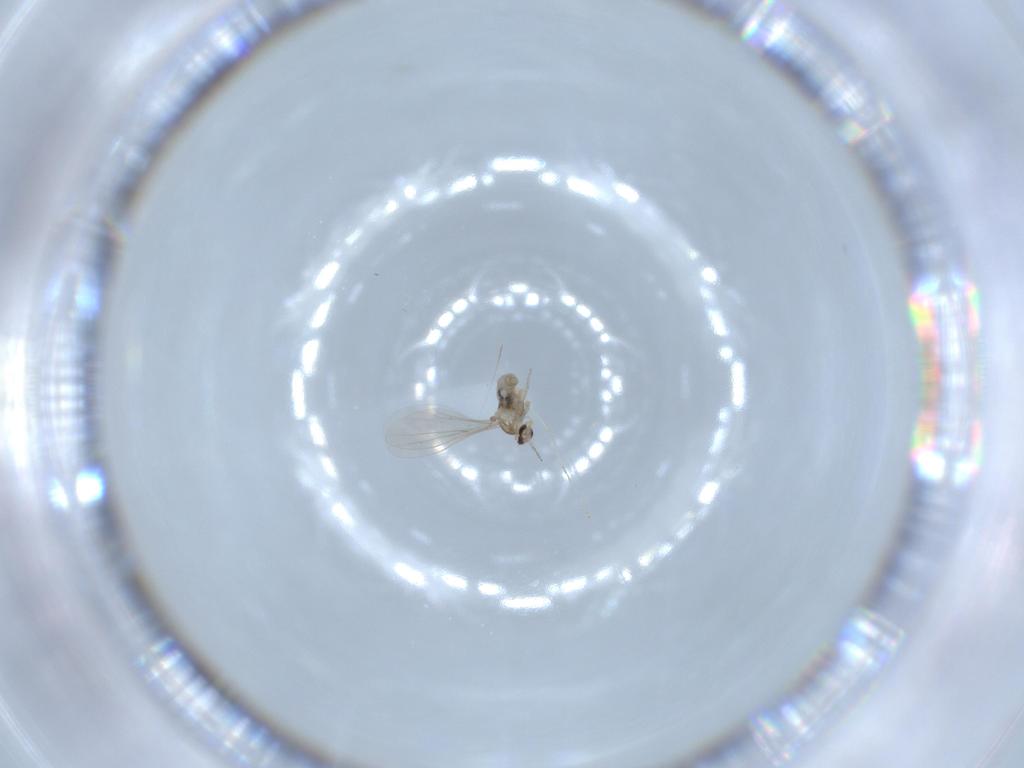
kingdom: Animalia
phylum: Arthropoda
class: Insecta
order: Diptera
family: Cecidomyiidae
